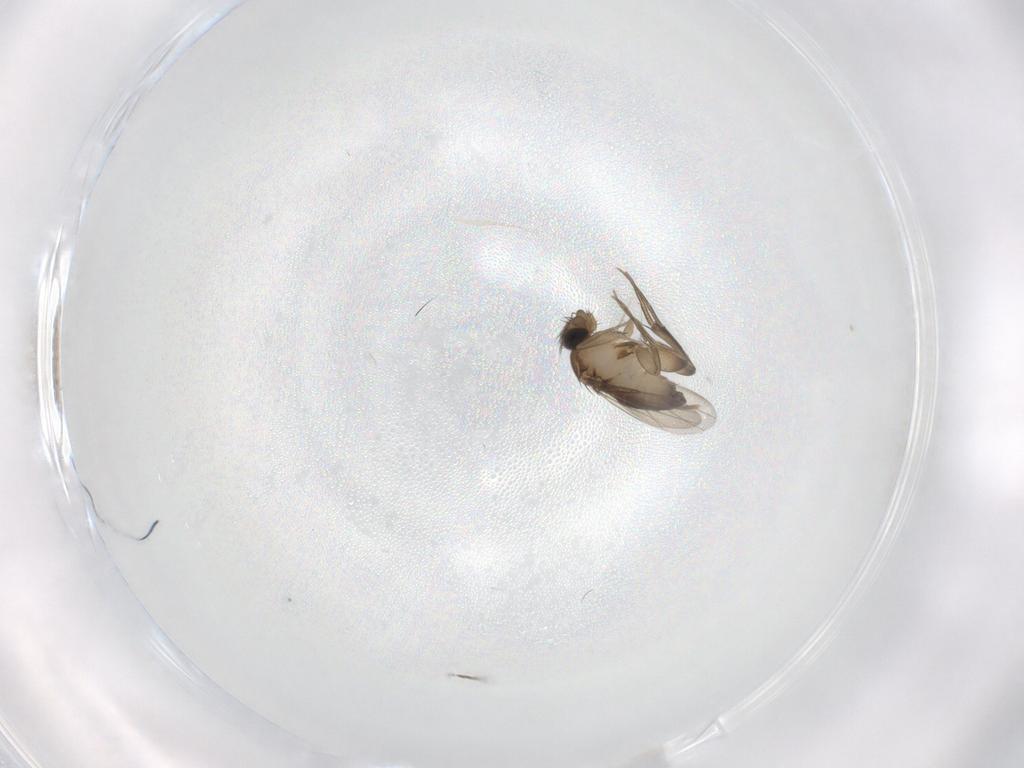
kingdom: Animalia
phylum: Arthropoda
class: Insecta
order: Diptera
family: Phoridae
